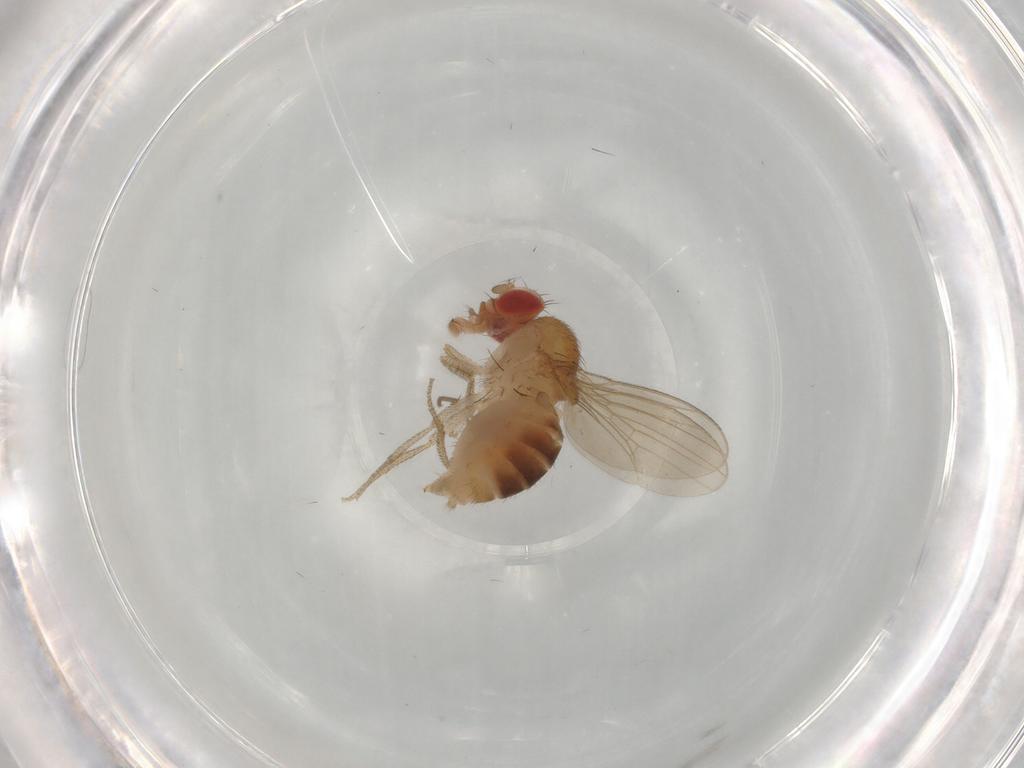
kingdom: Animalia
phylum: Arthropoda
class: Insecta
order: Diptera
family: Drosophilidae
